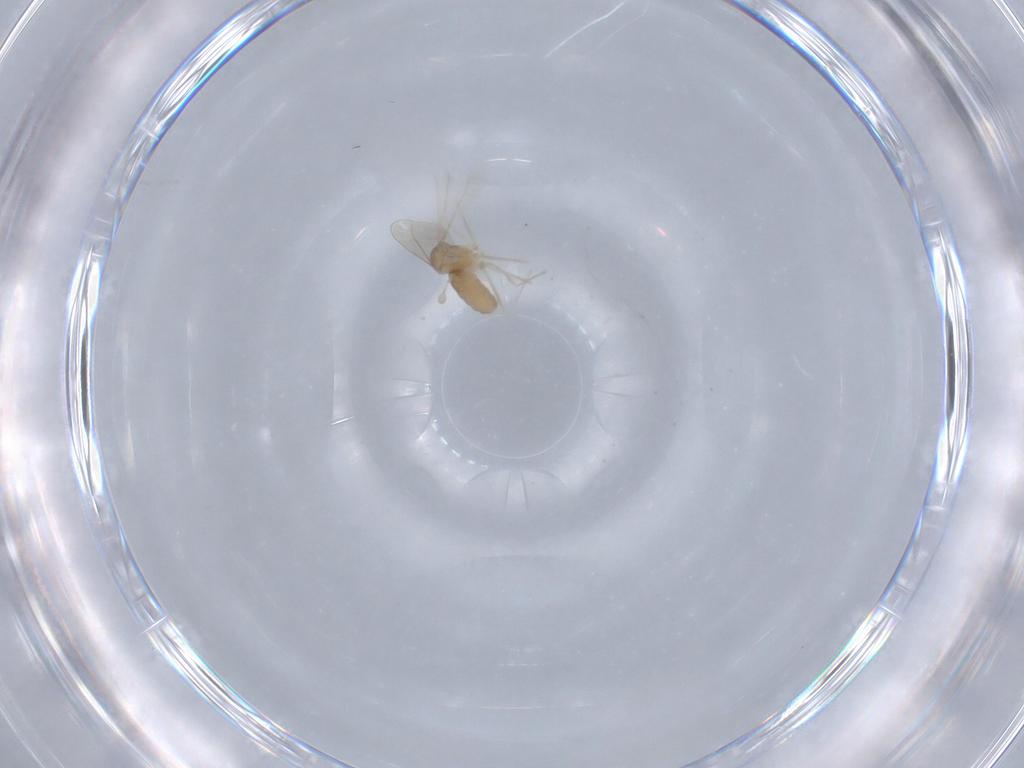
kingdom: Animalia
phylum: Arthropoda
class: Insecta
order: Diptera
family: Cecidomyiidae
